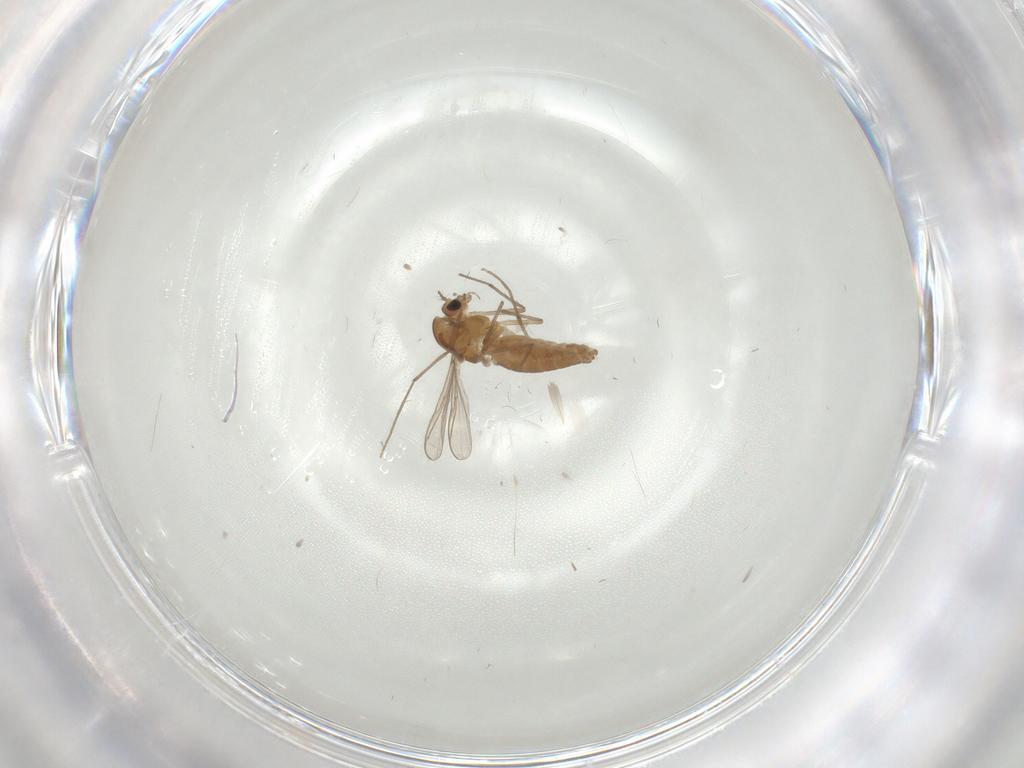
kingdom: Animalia
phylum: Arthropoda
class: Insecta
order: Diptera
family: Chironomidae
